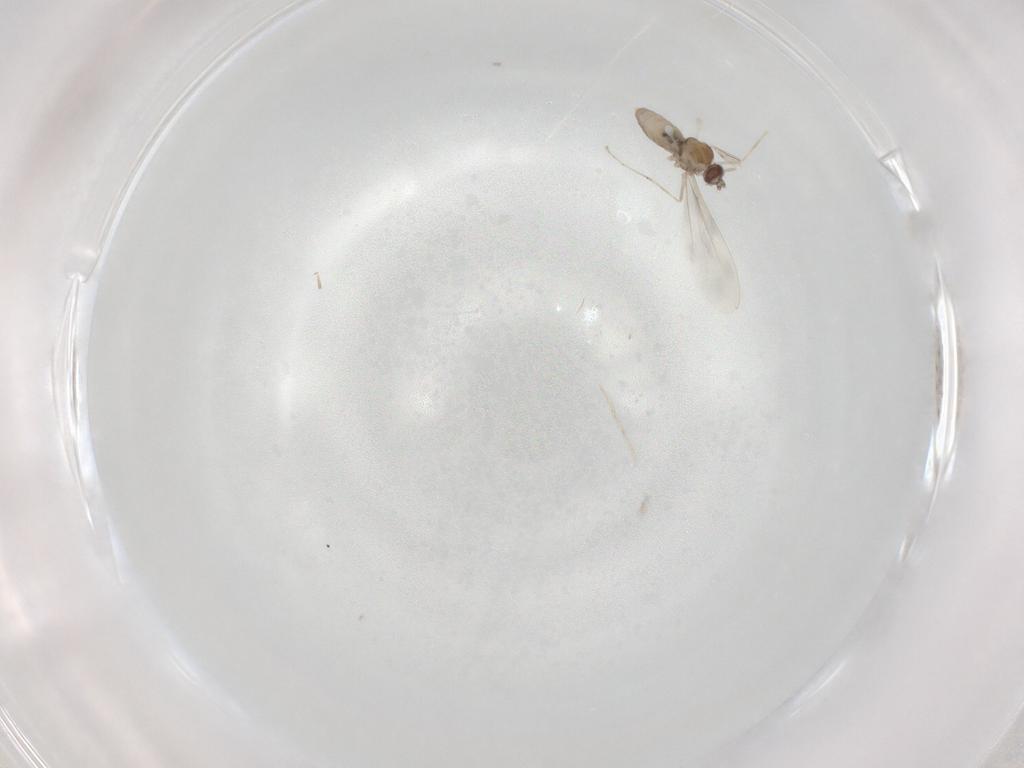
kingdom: Animalia
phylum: Arthropoda
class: Insecta
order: Diptera
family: Cecidomyiidae
